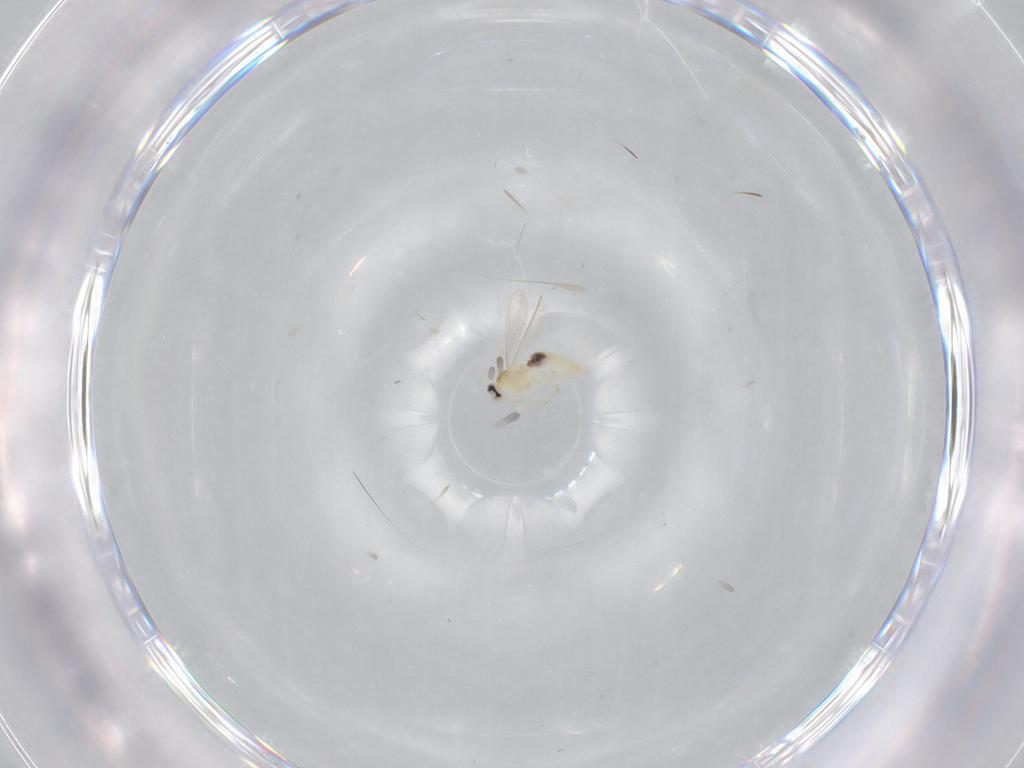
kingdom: Animalia
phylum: Arthropoda
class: Insecta
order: Diptera
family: Cecidomyiidae
